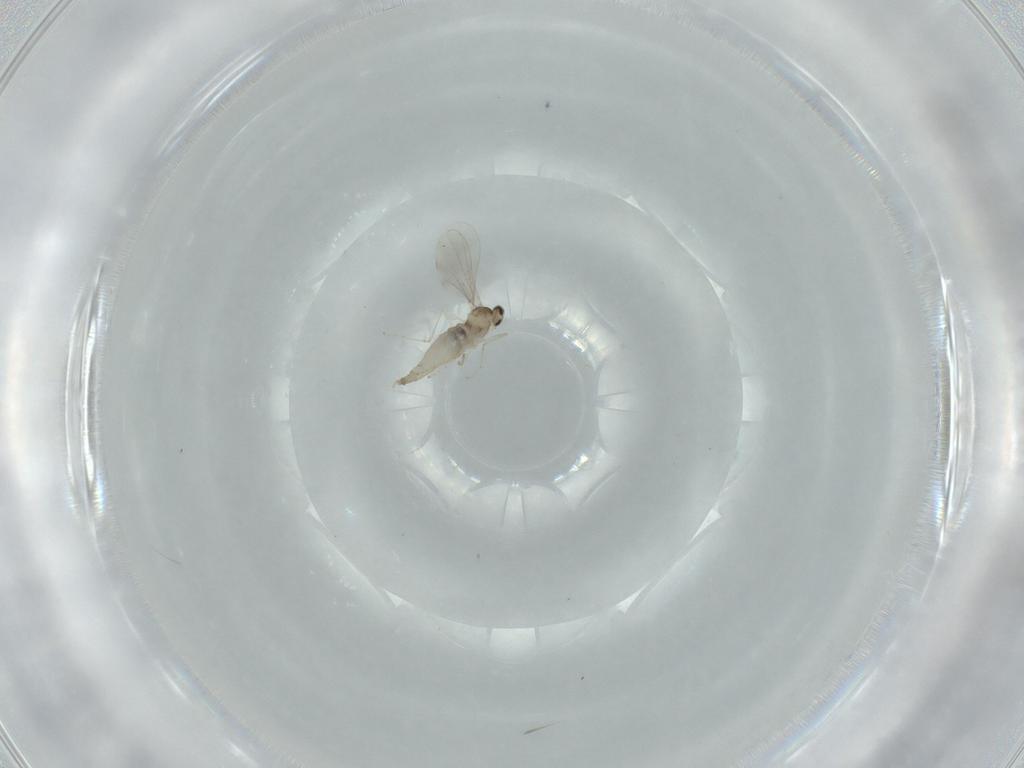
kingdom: Animalia
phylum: Arthropoda
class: Insecta
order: Diptera
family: Cecidomyiidae
